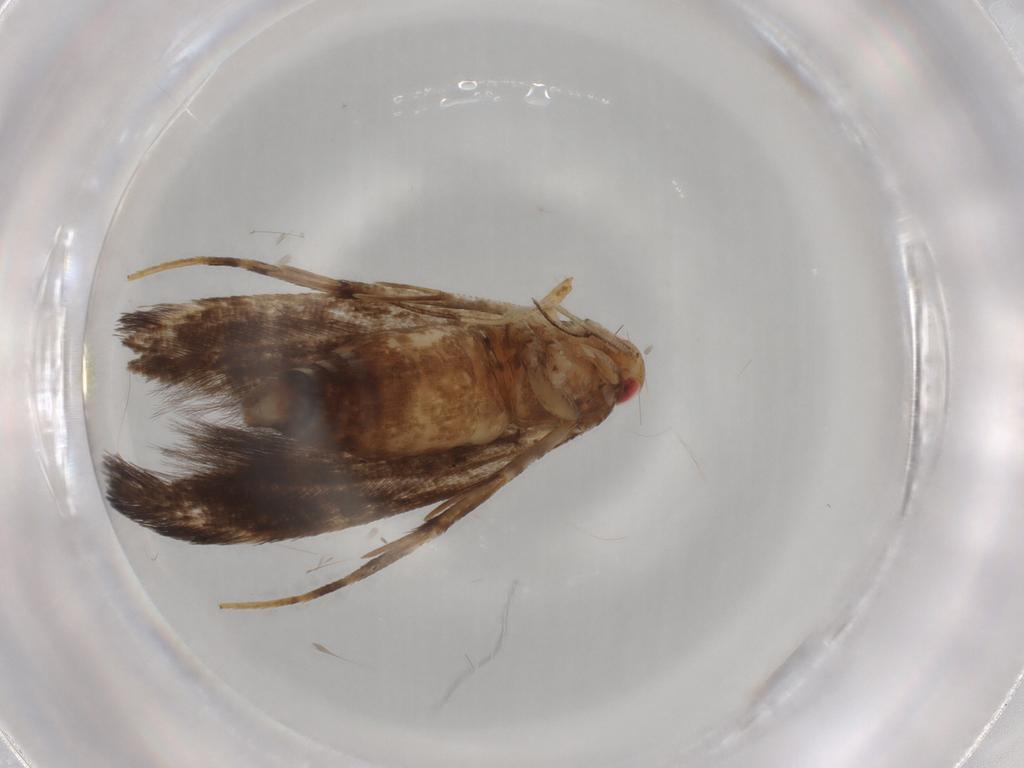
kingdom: Animalia
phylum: Arthropoda
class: Insecta
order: Lepidoptera
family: Cosmopterigidae
